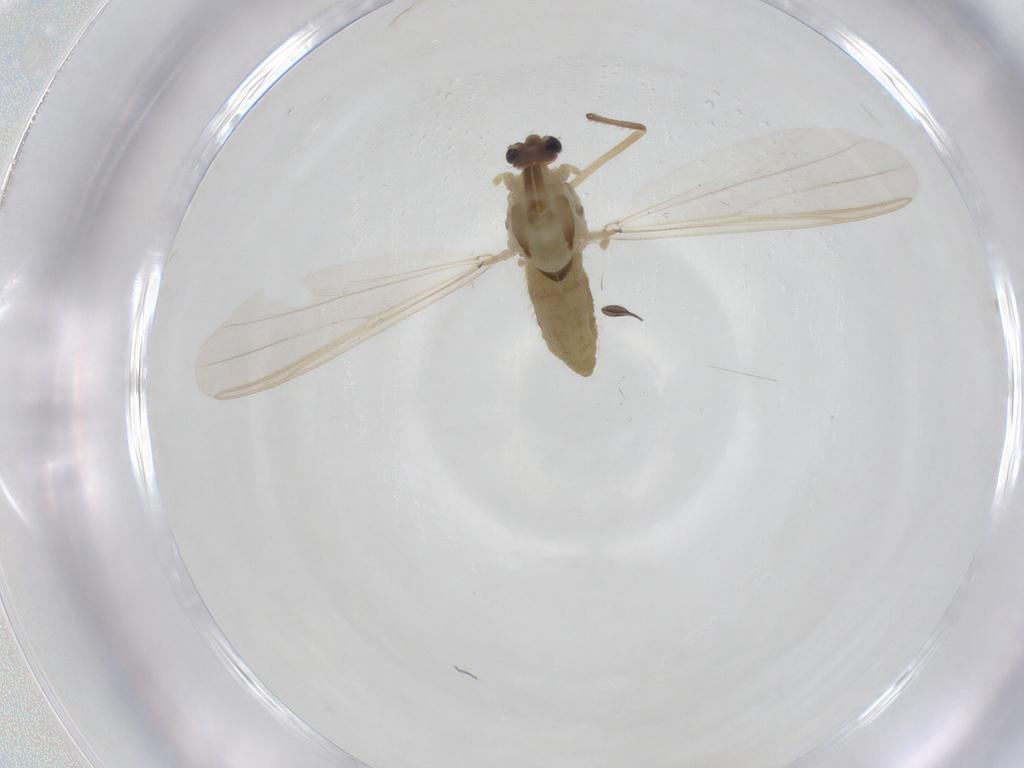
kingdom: Animalia
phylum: Arthropoda
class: Insecta
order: Diptera
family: Chironomidae
